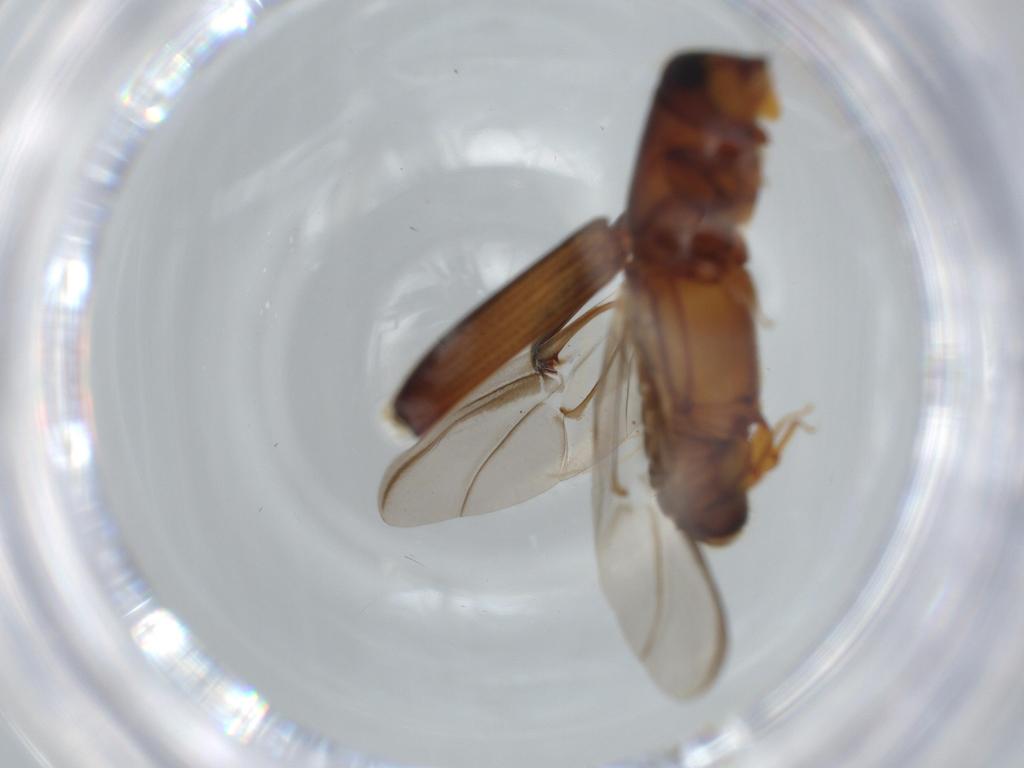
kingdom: Animalia
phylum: Arthropoda
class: Insecta
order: Coleoptera
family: Curculionidae
